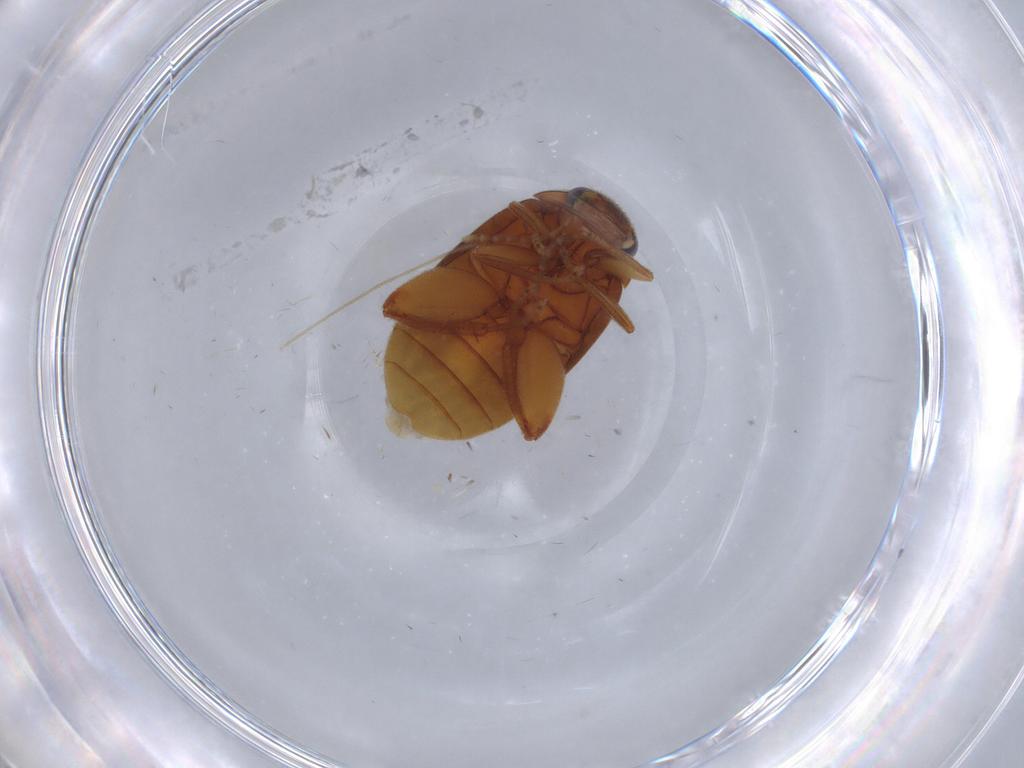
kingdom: Animalia
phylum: Arthropoda
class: Insecta
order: Coleoptera
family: Scirtidae
